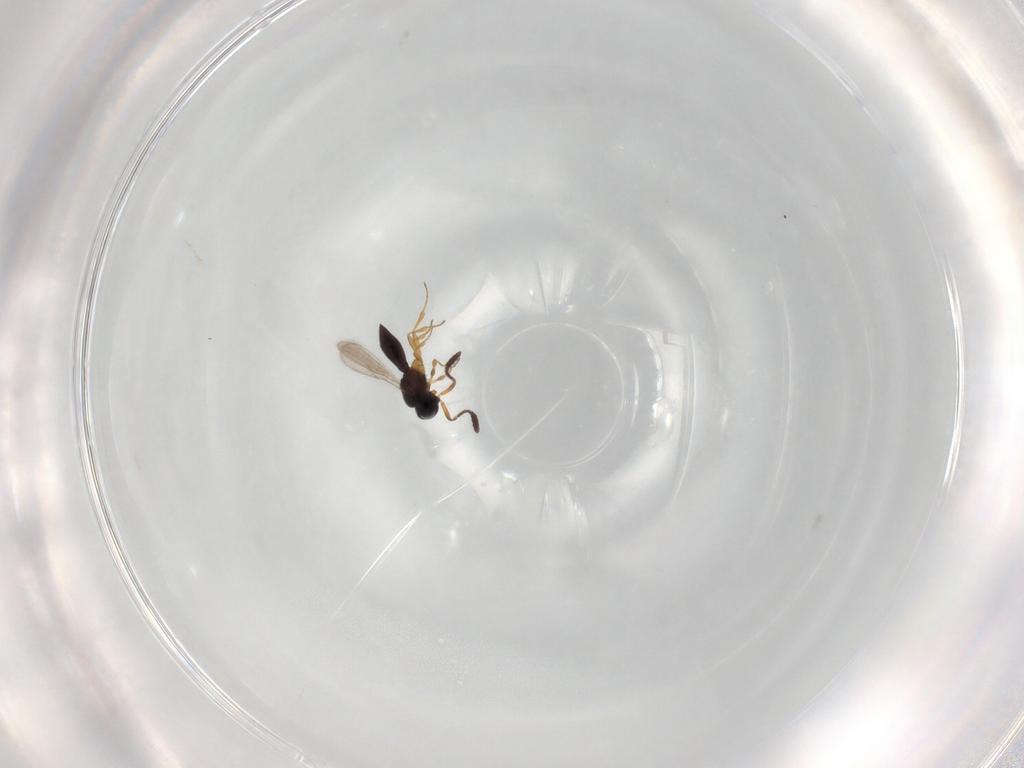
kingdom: Animalia
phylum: Arthropoda
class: Insecta
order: Hymenoptera
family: Scelionidae
